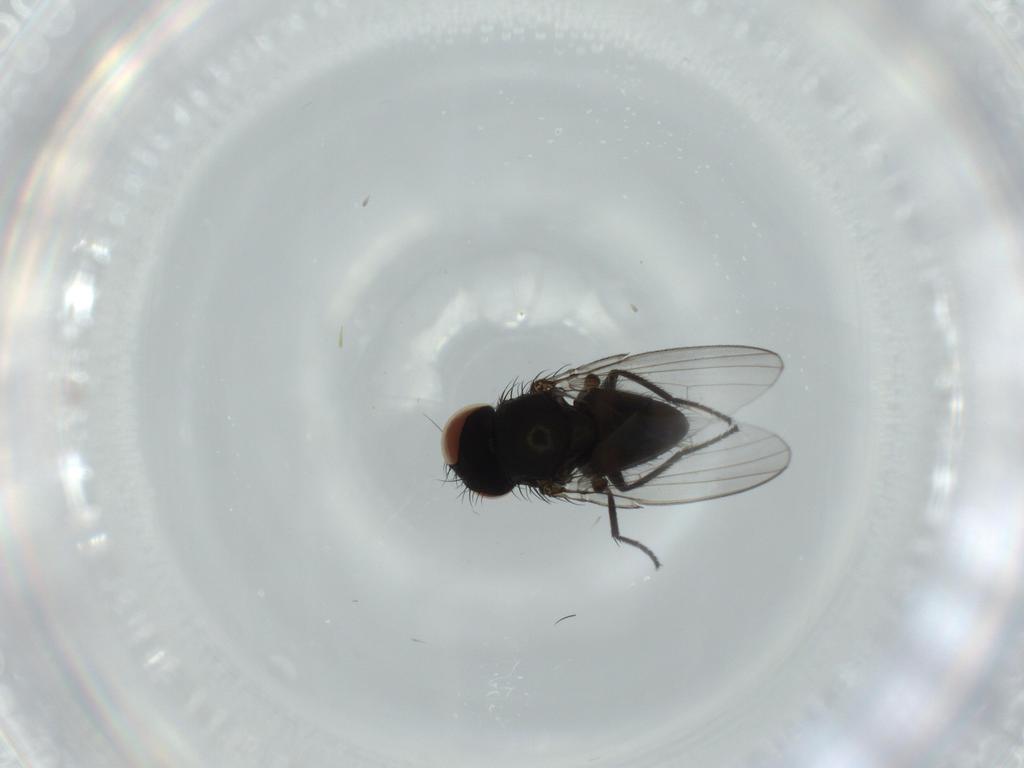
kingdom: Animalia
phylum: Arthropoda
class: Insecta
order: Diptera
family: Milichiidae
